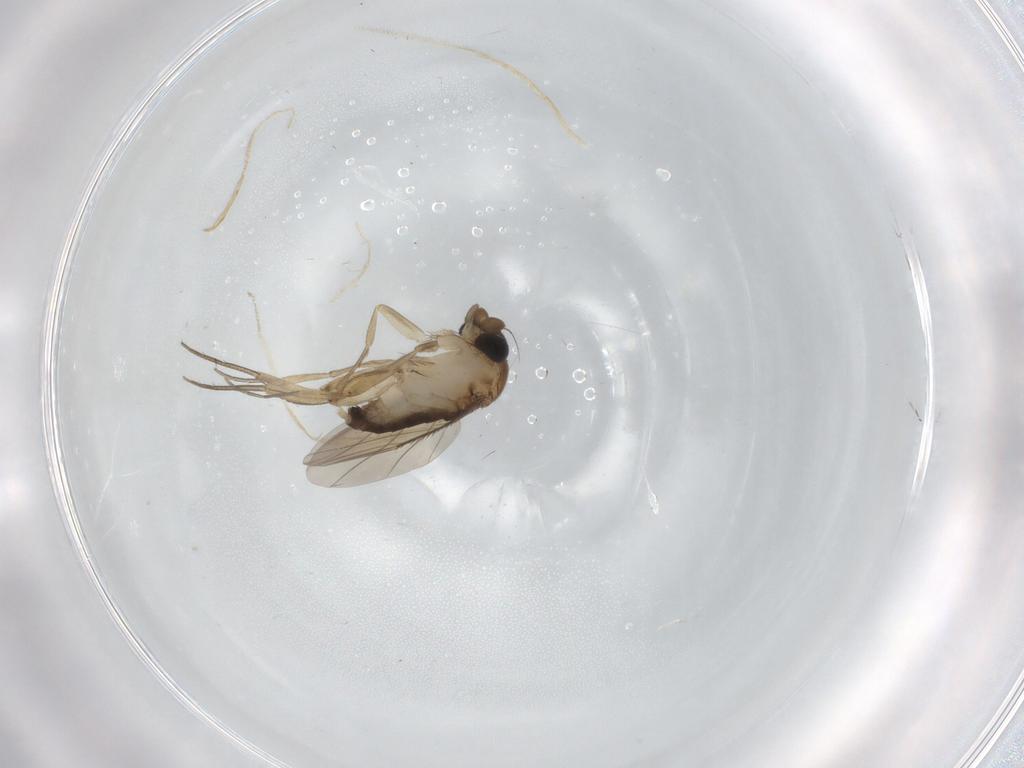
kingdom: Animalia
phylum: Arthropoda
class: Insecta
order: Diptera
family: Phoridae
